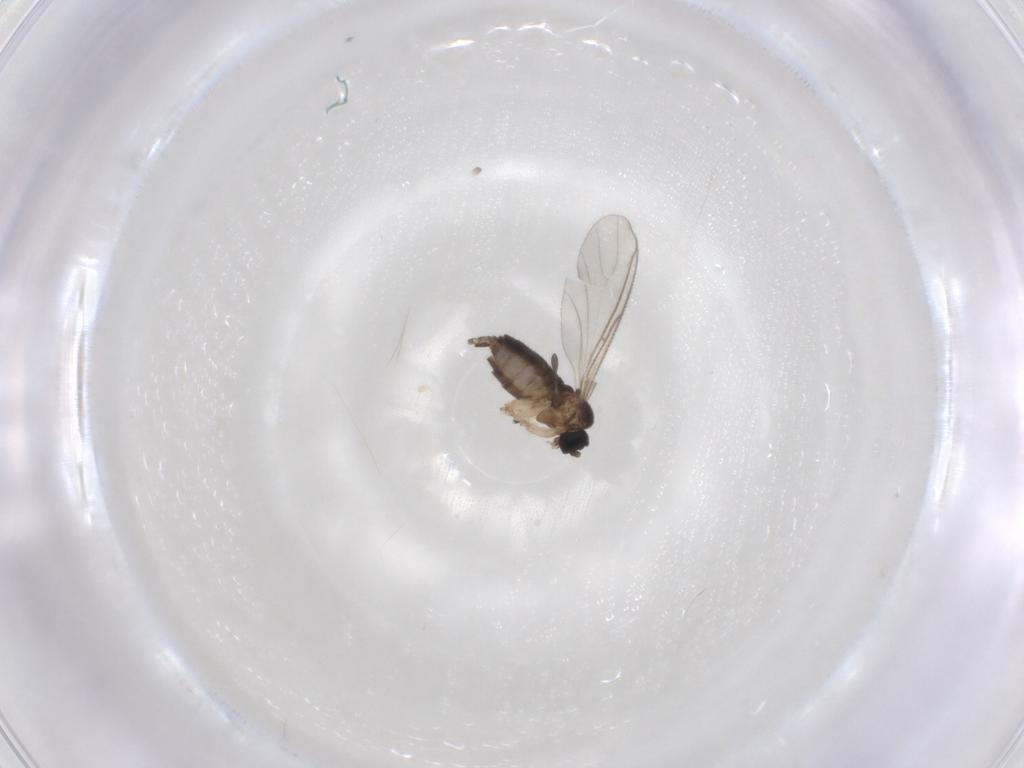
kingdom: Animalia
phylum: Arthropoda
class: Insecta
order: Diptera
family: Sciaridae
